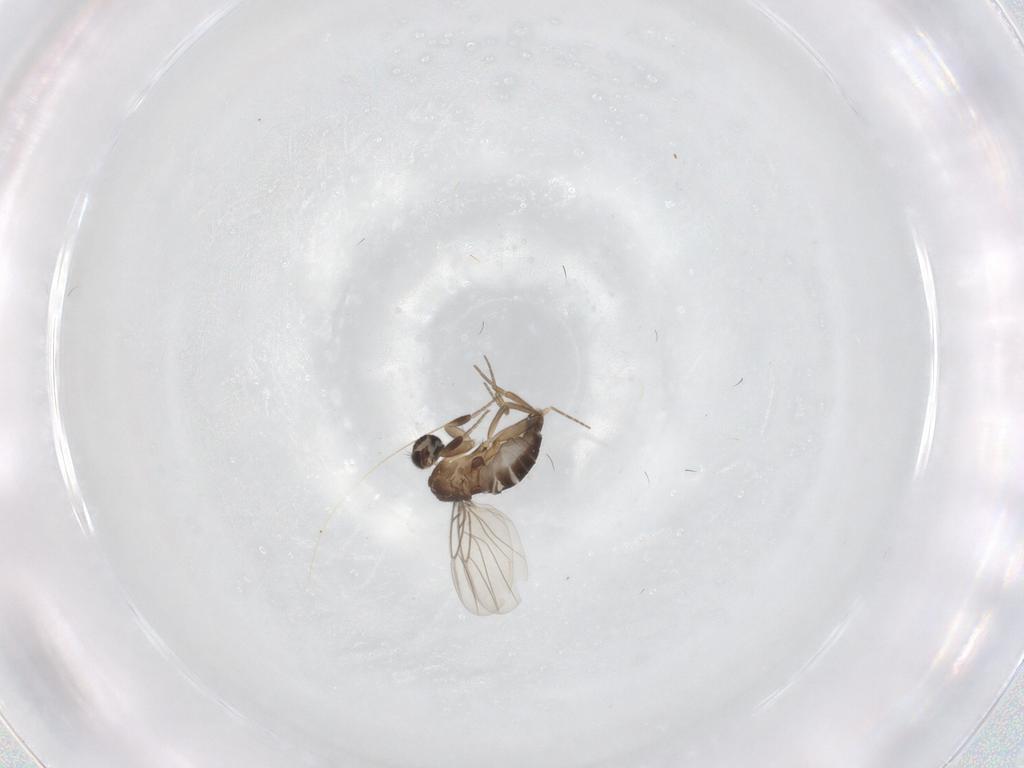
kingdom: Animalia
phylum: Arthropoda
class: Insecta
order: Diptera
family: Phoridae
